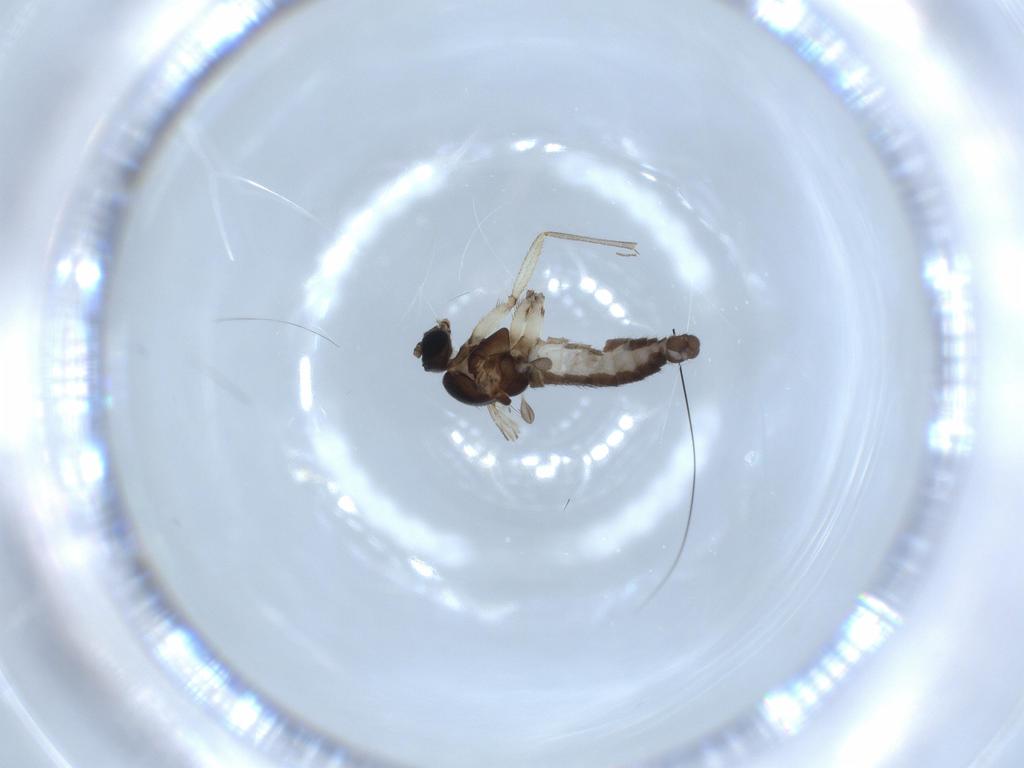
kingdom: Animalia
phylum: Arthropoda
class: Insecta
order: Diptera
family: Sciaridae
